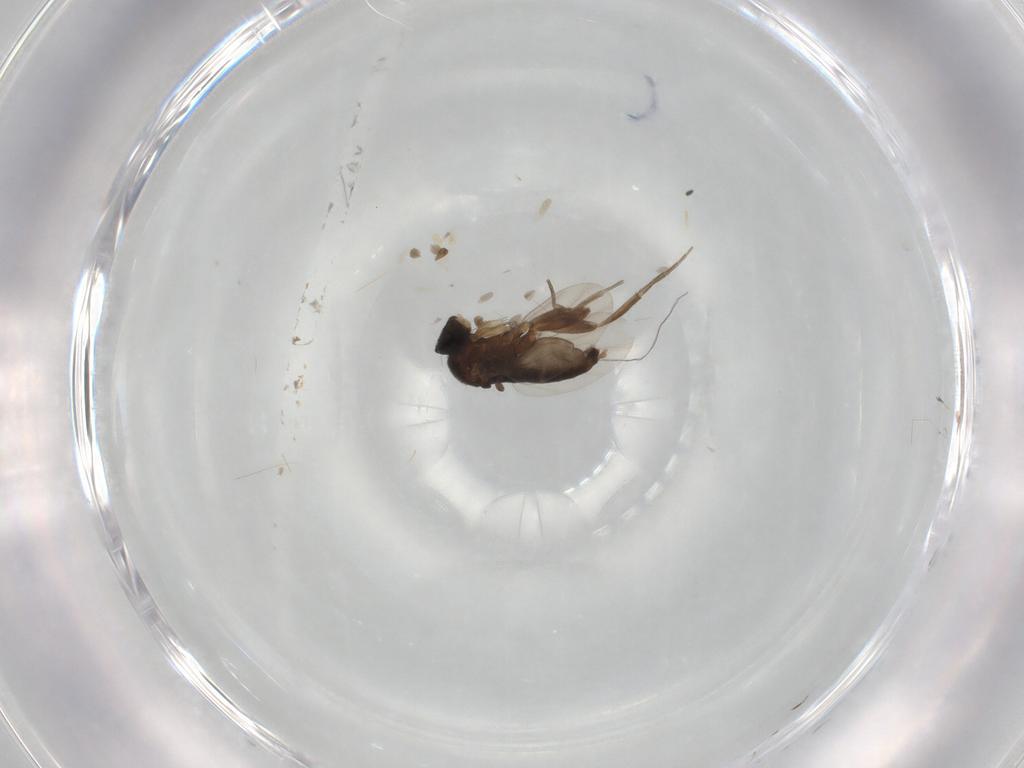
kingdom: Animalia
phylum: Arthropoda
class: Insecta
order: Diptera
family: Phoridae
